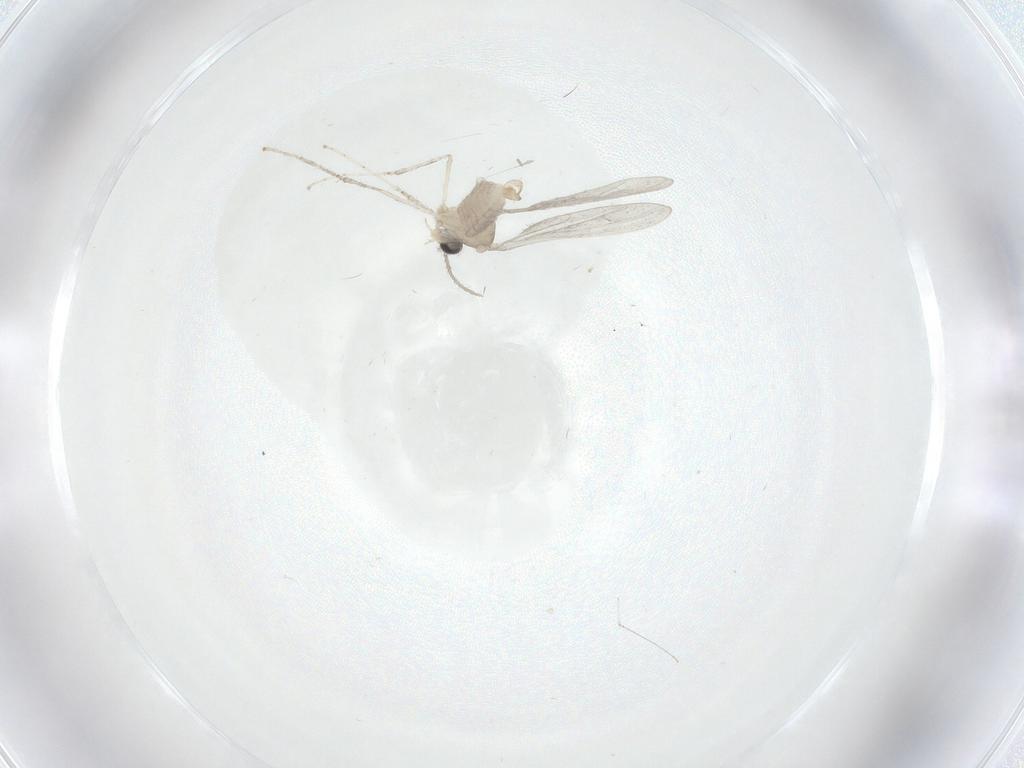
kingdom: Animalia
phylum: Arthropoda
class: Insecta
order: Diptera
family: Cecidomyiidae
